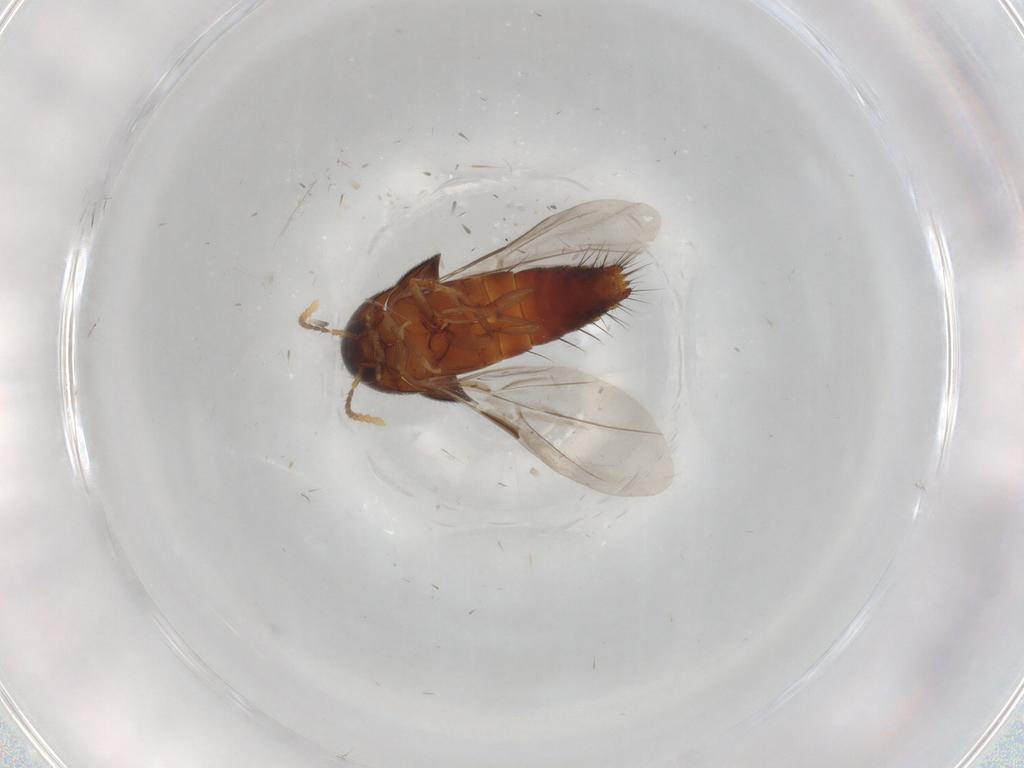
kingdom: Animalia
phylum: Arthropoda
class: Insecta
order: Coleoptera
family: Staphylinidae
